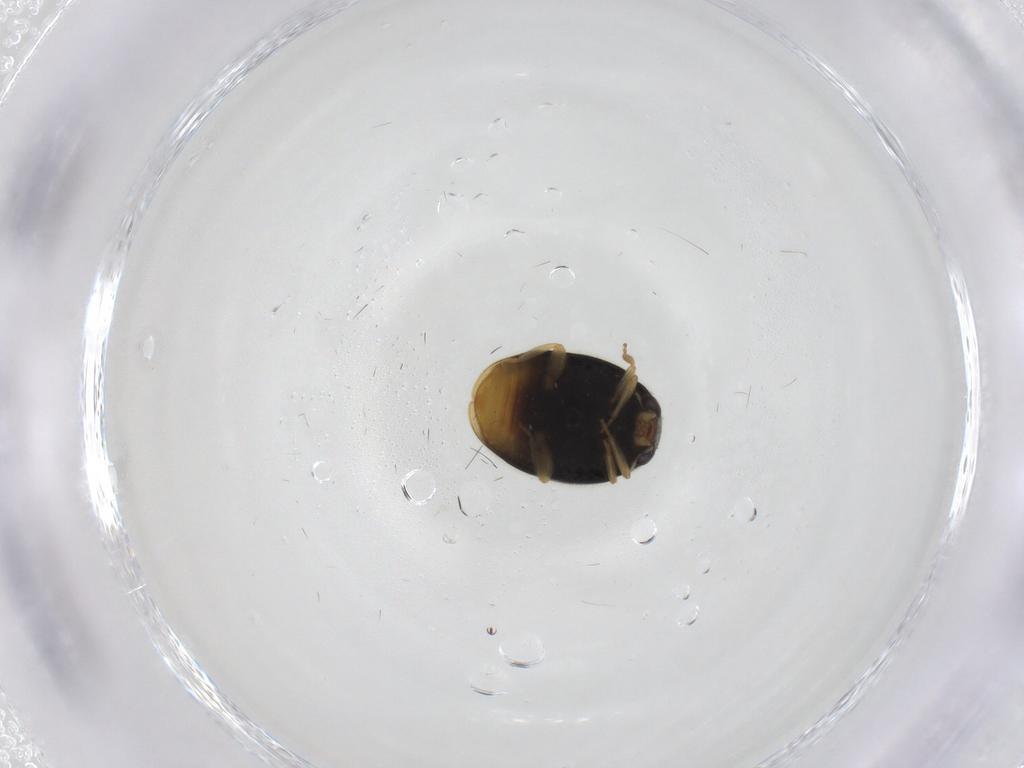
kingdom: Animalia
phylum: Arthropoda
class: Insecta
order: Coleoptera
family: Coccinellidae
